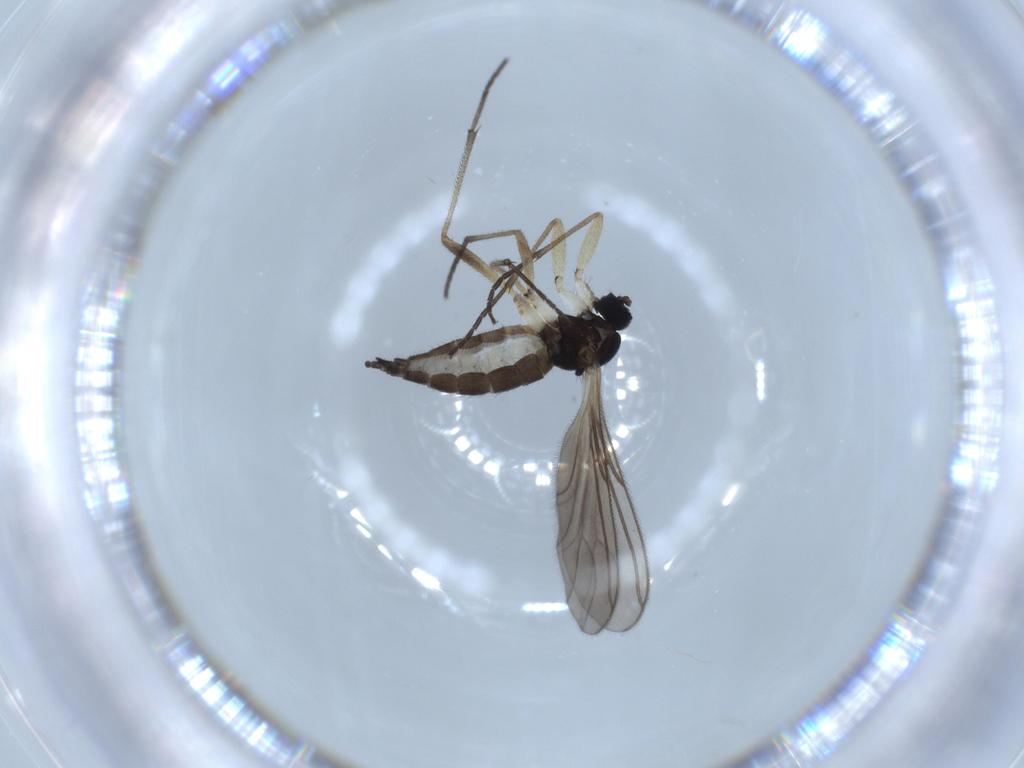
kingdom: Animalia
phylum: Arthropoda
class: Insecta
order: Diptera
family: Sciaridae
